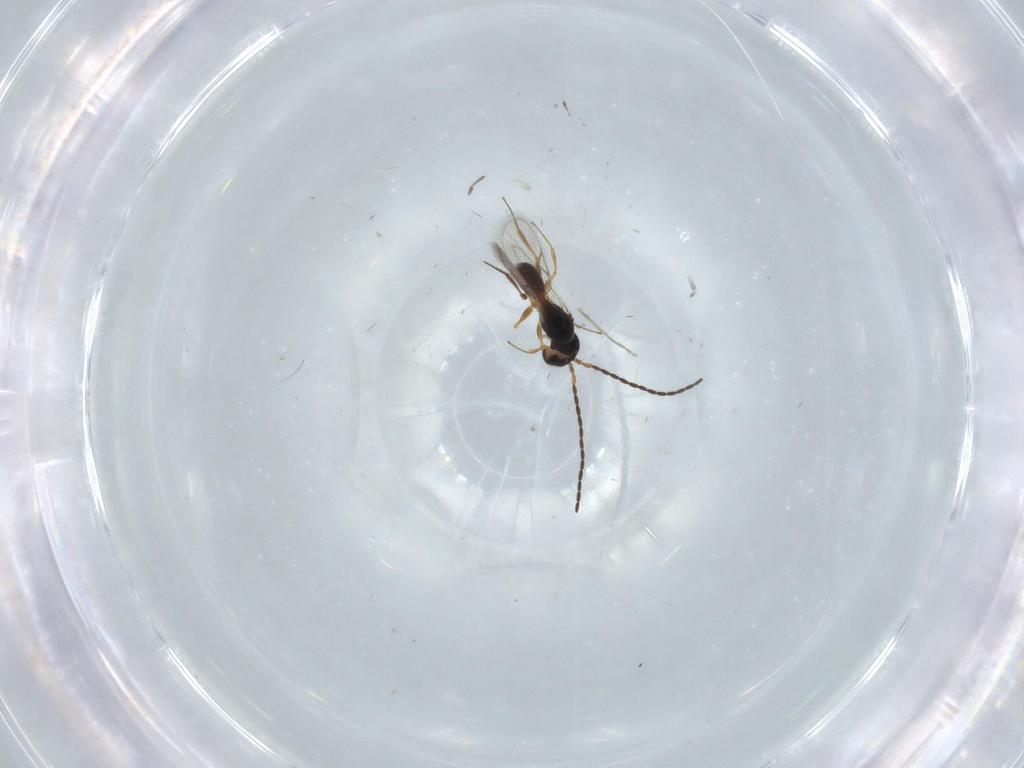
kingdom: Animalia
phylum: Arthropoda
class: Insecta
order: Hymenoptera
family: Figitidae
